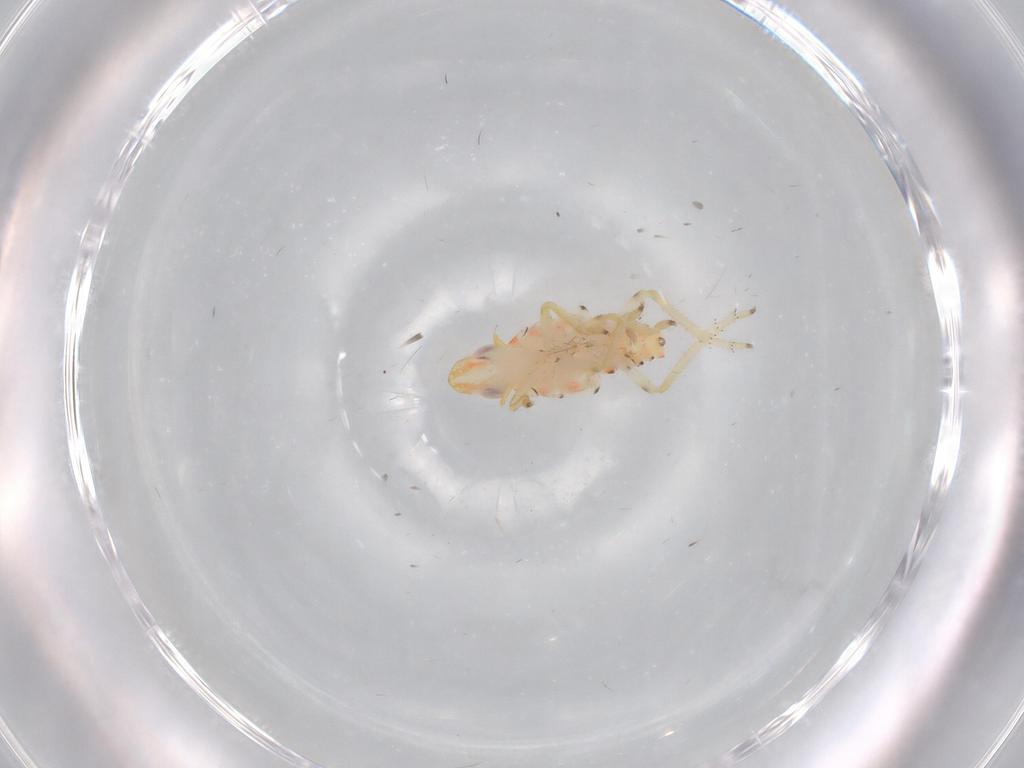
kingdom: Animalia
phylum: Arthropoda
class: Insecta
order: Hemiptera
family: Tropiduchidae
